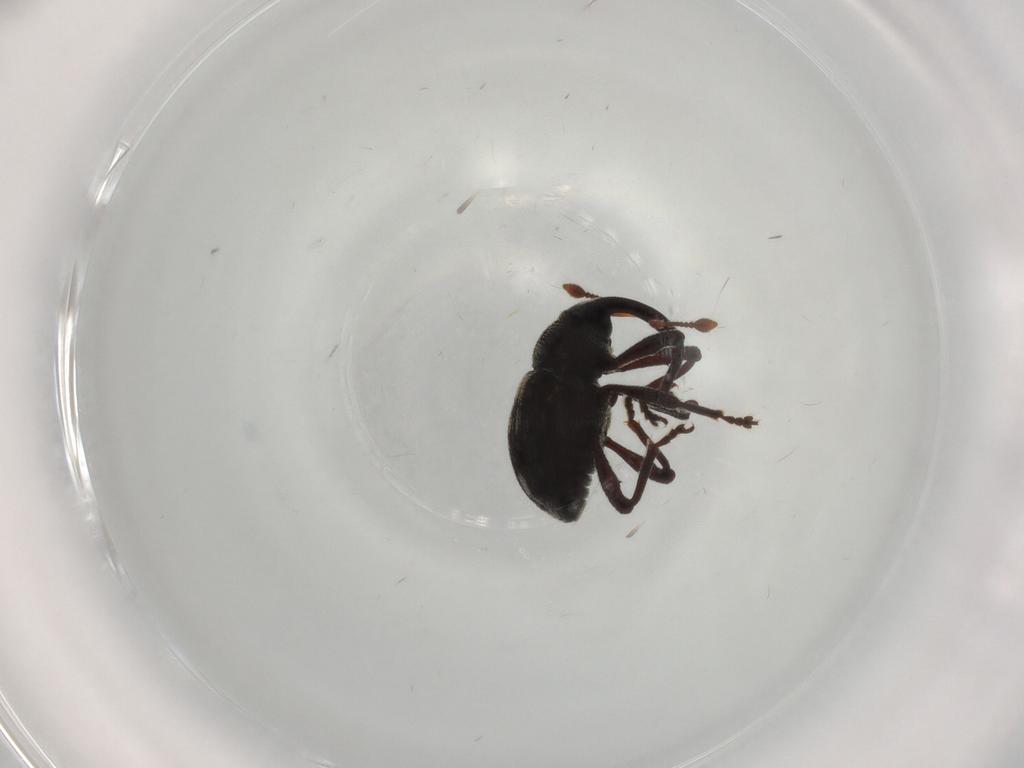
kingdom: Animalia
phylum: Arthropoda
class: Insecta
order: Coleoptera
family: Curculionidae
